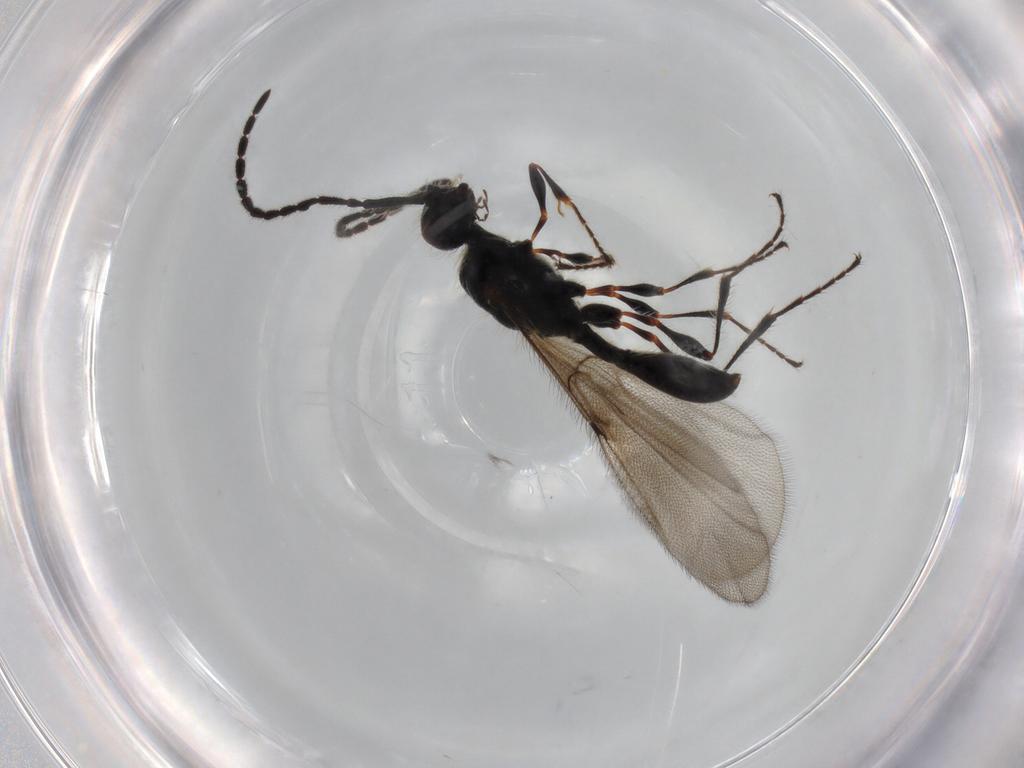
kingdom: Animalia
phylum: Arthropoda
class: Insecta
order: Hymenoptera
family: Diapriidae
